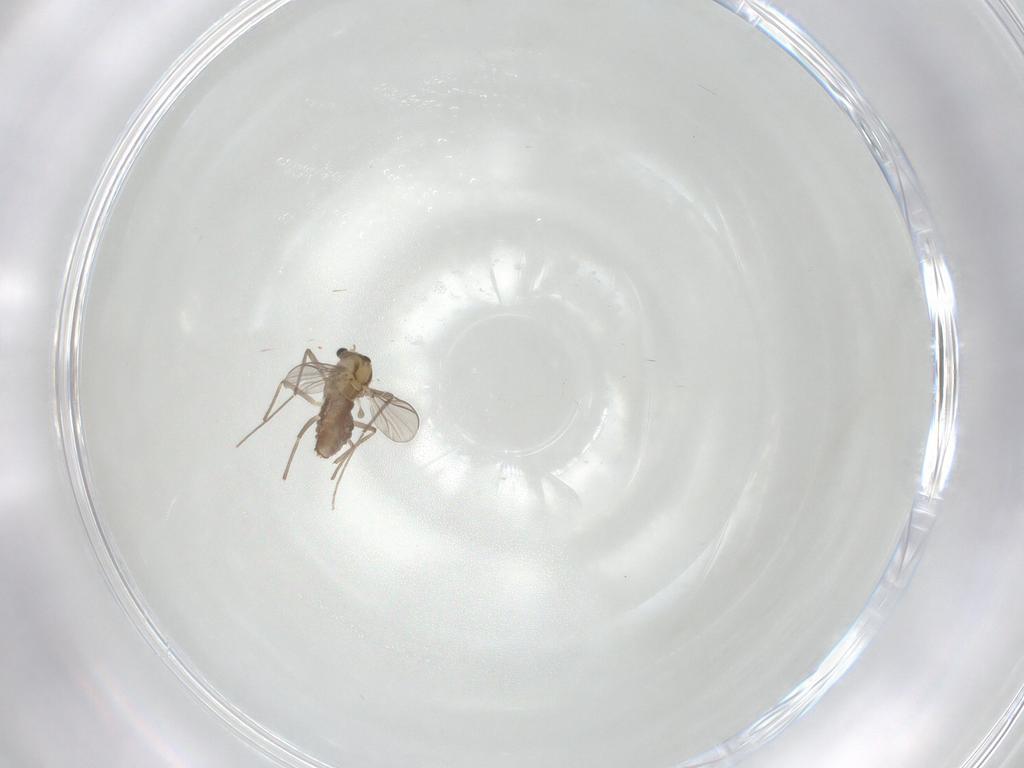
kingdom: Animalia
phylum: Arthropoda
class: Insecta
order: Diptera
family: Chironomidae
